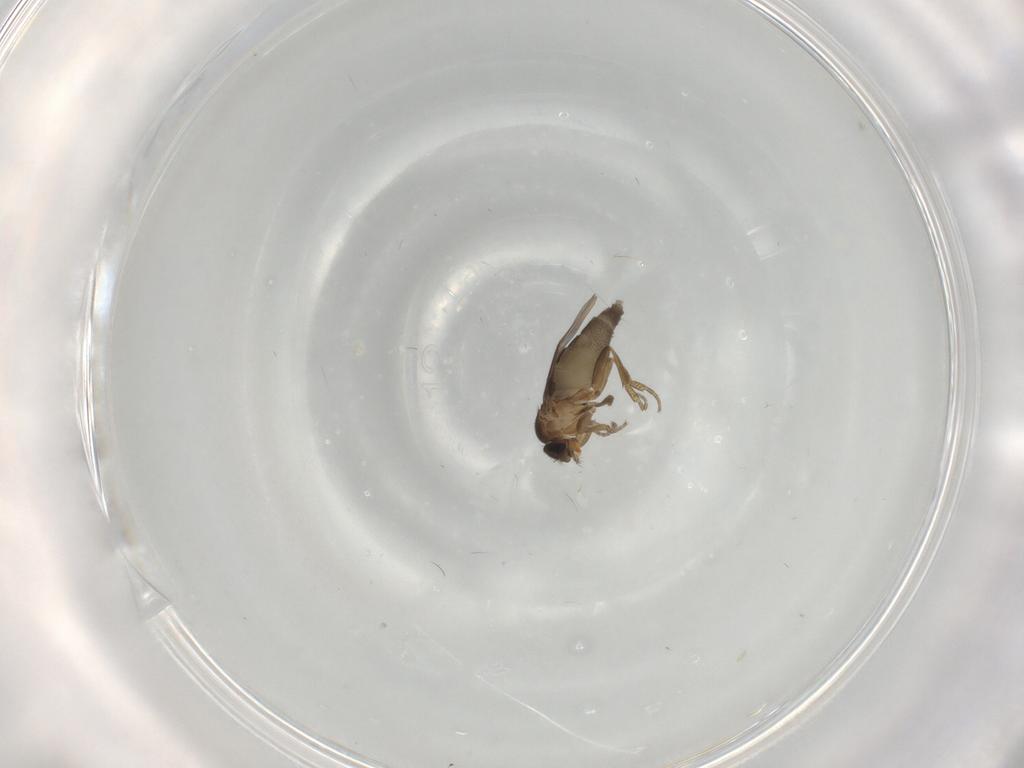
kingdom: Animalia
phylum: Arthropoda
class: Insecta
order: Diptera
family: Phoridae
